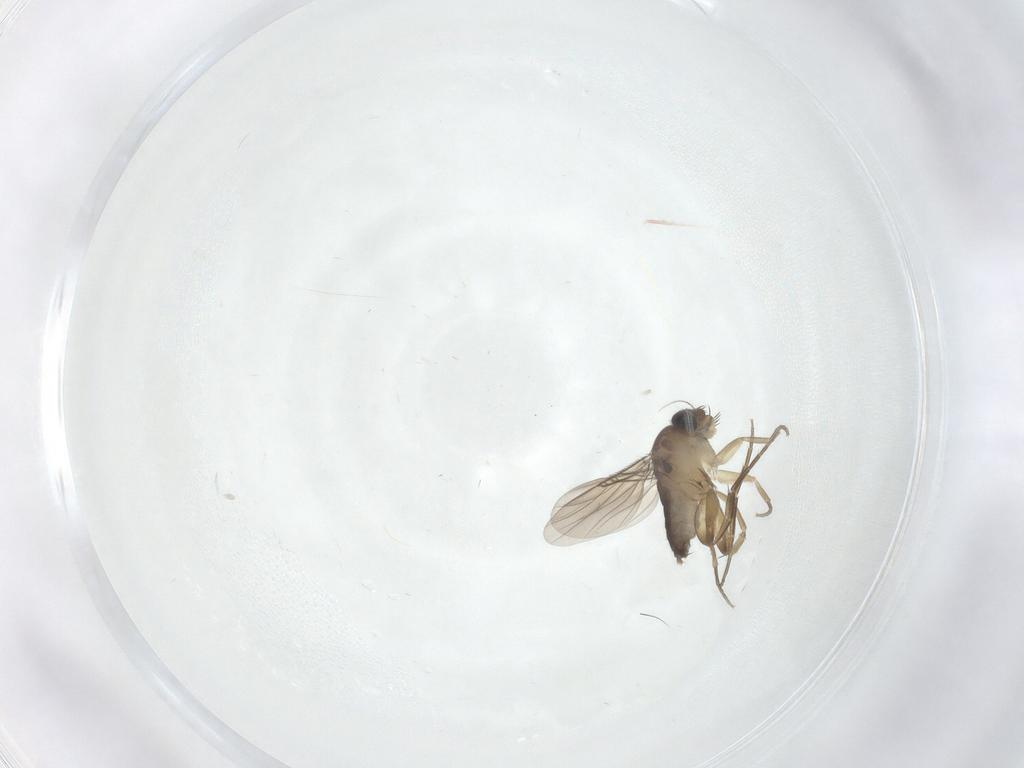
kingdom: Animalia
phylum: Arthropoda
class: Insecta
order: Diptera
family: Phoridae
